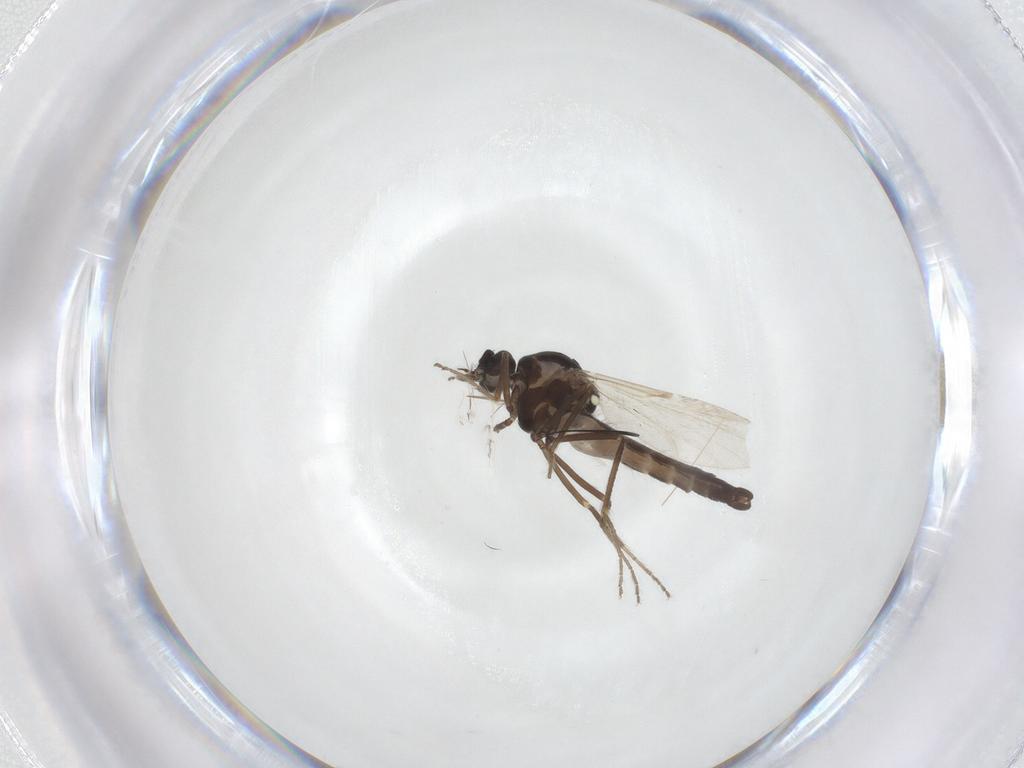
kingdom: Animalia
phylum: Arthropoda
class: Insecta
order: Diptera
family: Ceratopogonidae
